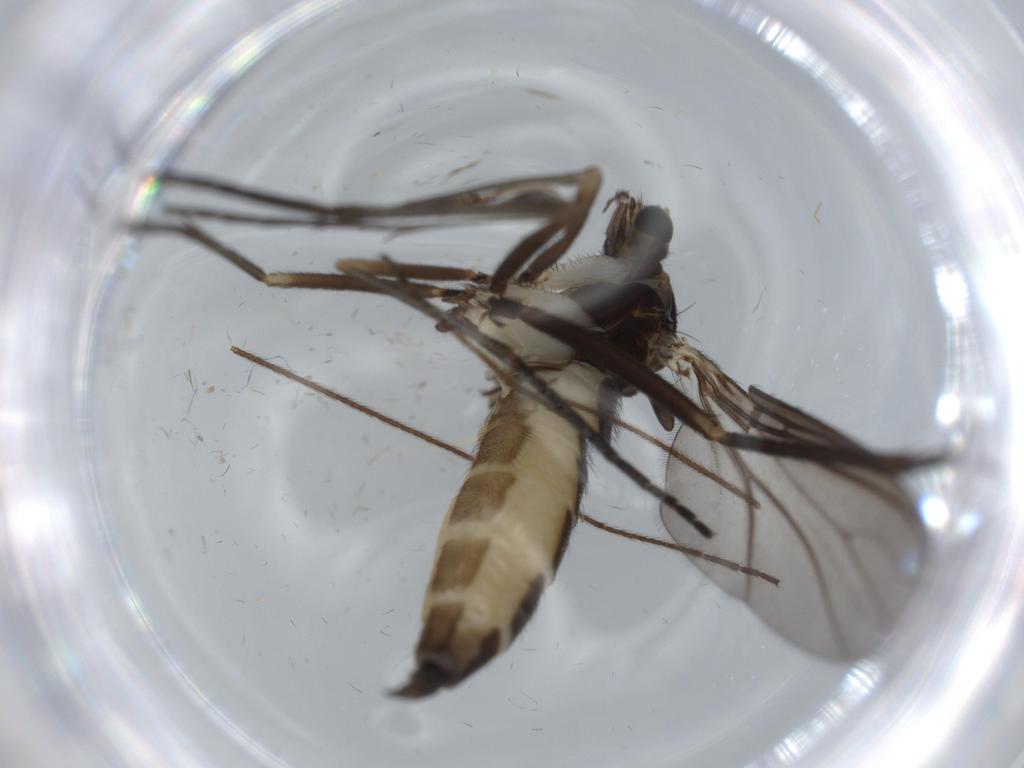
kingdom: Animalia
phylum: Arthropoda
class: Insecta
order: Diptera
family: Sciaridae
